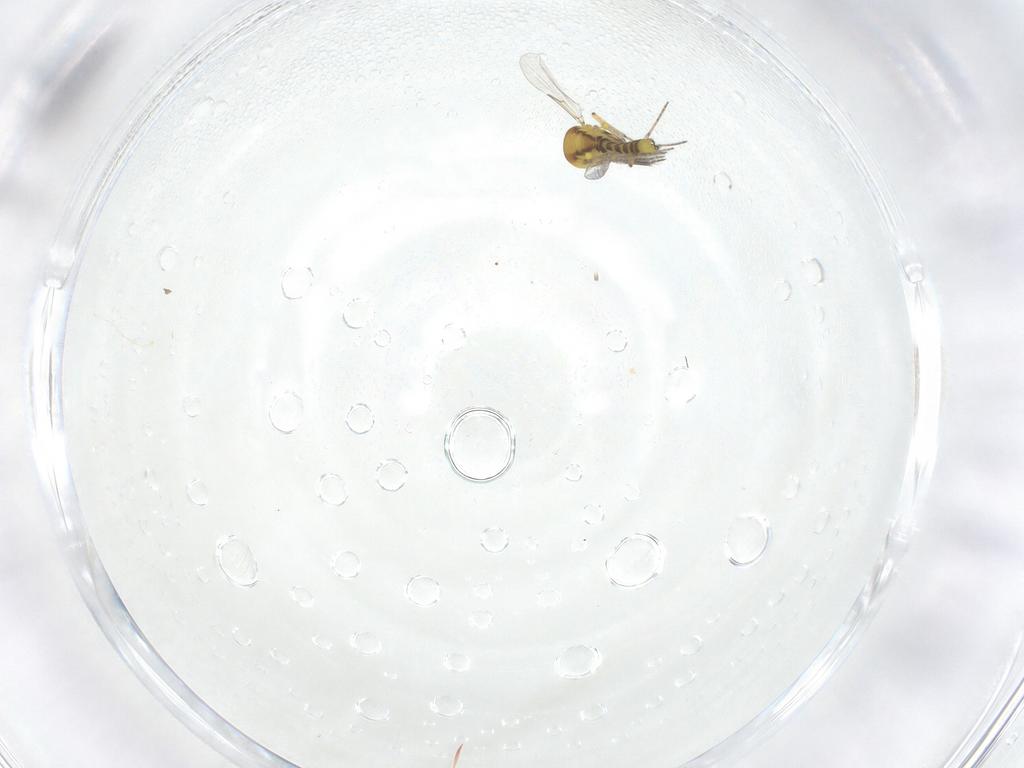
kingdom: Animalia
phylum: Arthropoda
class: Insecta
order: Diptera
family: Ceratopogonidae
